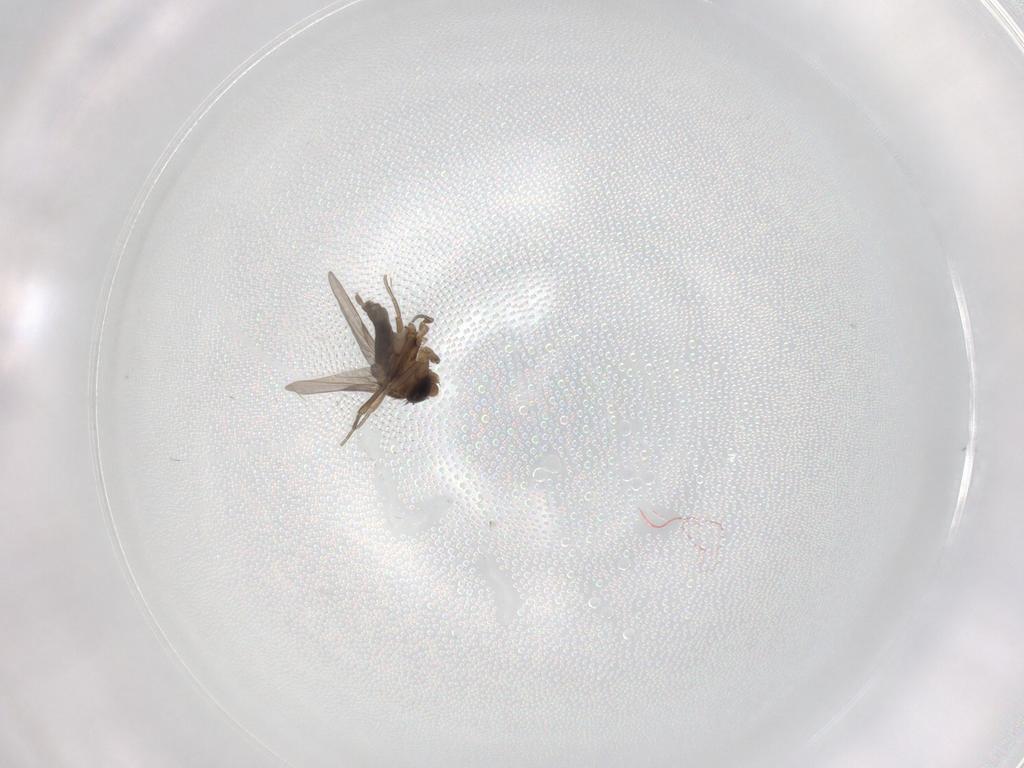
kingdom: Animalia
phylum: Arthropoda
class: Insecta
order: Diptera
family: Phoridae
